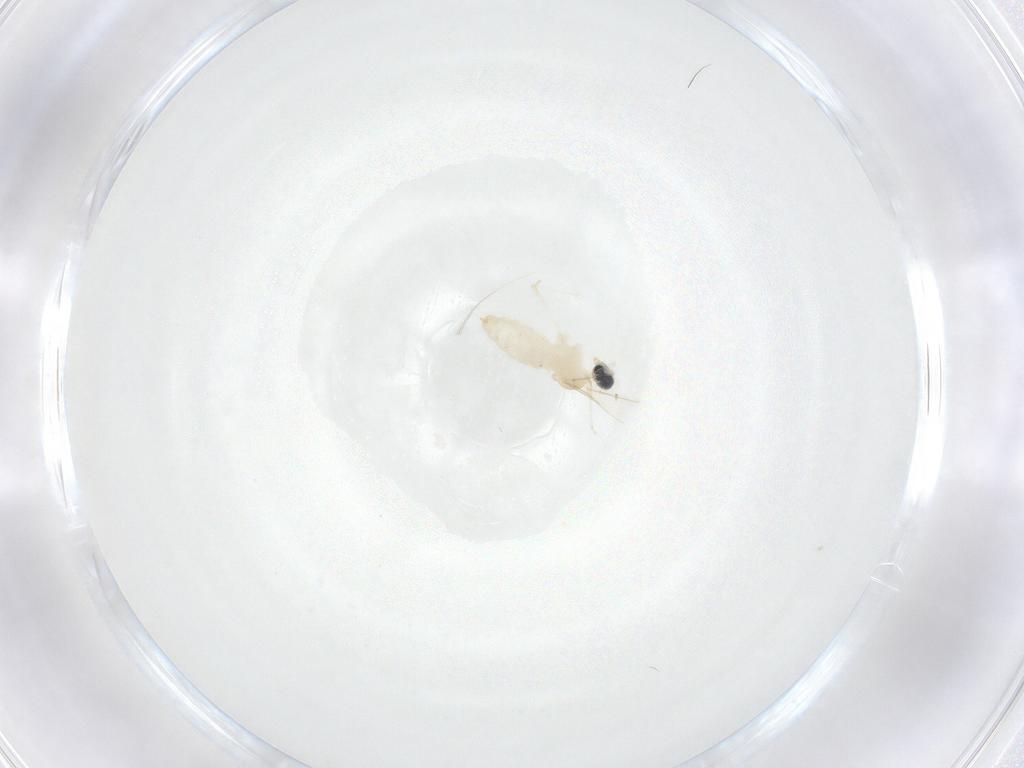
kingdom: Animalia
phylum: Arthropoda
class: Insecta
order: Diptera
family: Cecidomyiidae
